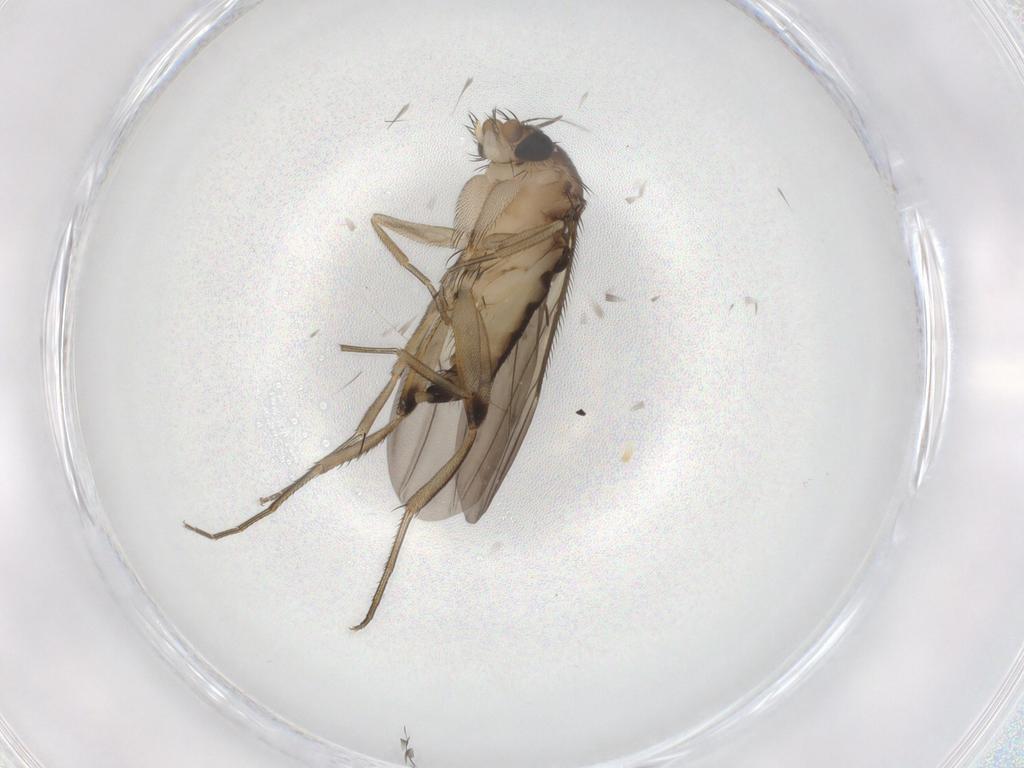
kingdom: Animalia
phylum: Arthropoda
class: Insecta
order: Diptera
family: Phoridae
